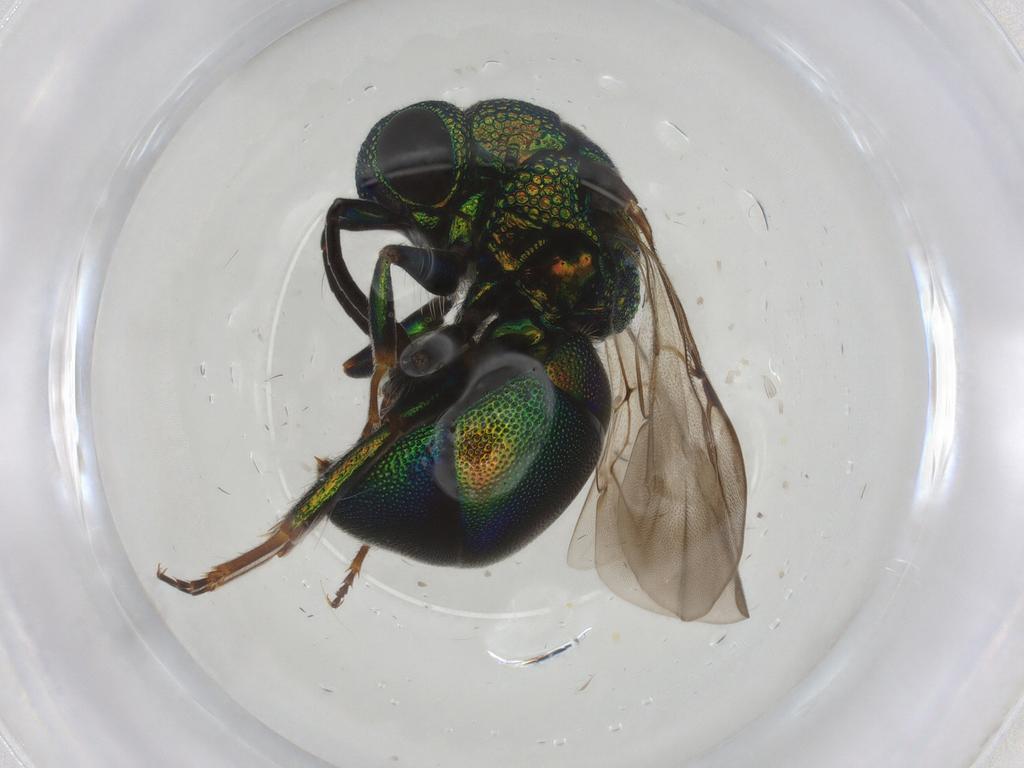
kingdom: Animalia
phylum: Arthropoda
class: Insecta
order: Hymenoptera
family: Chrysididae
